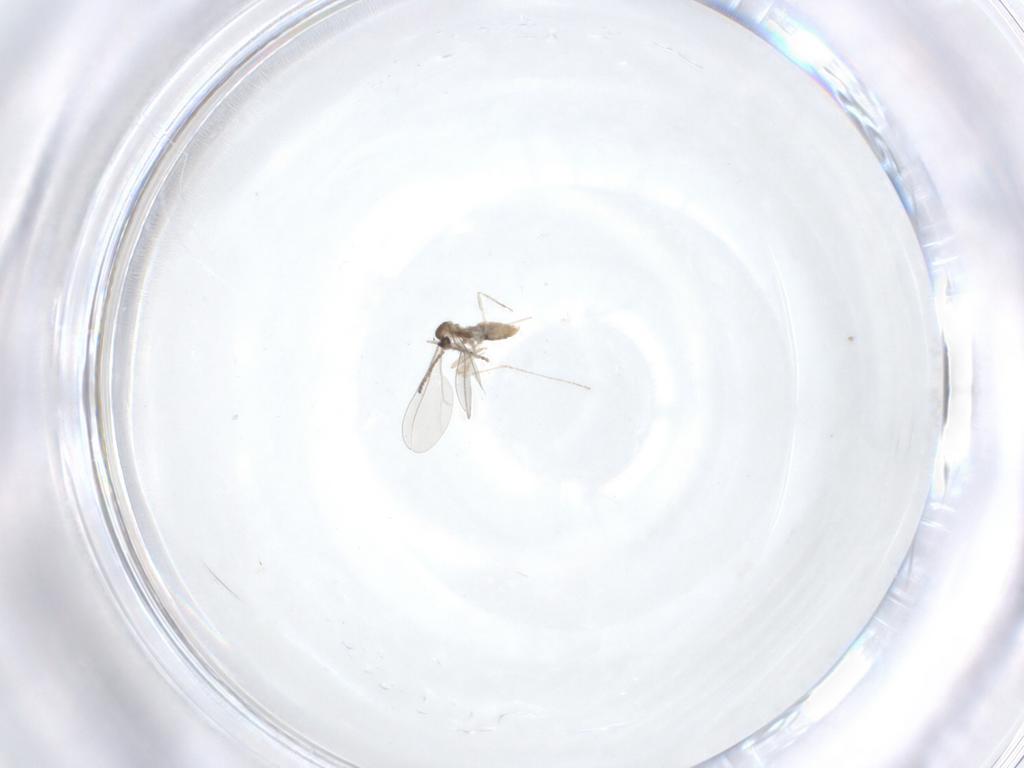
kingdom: Animalia
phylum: Arthropoda
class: Insecta
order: Diptera
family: Cecidomyiidae
